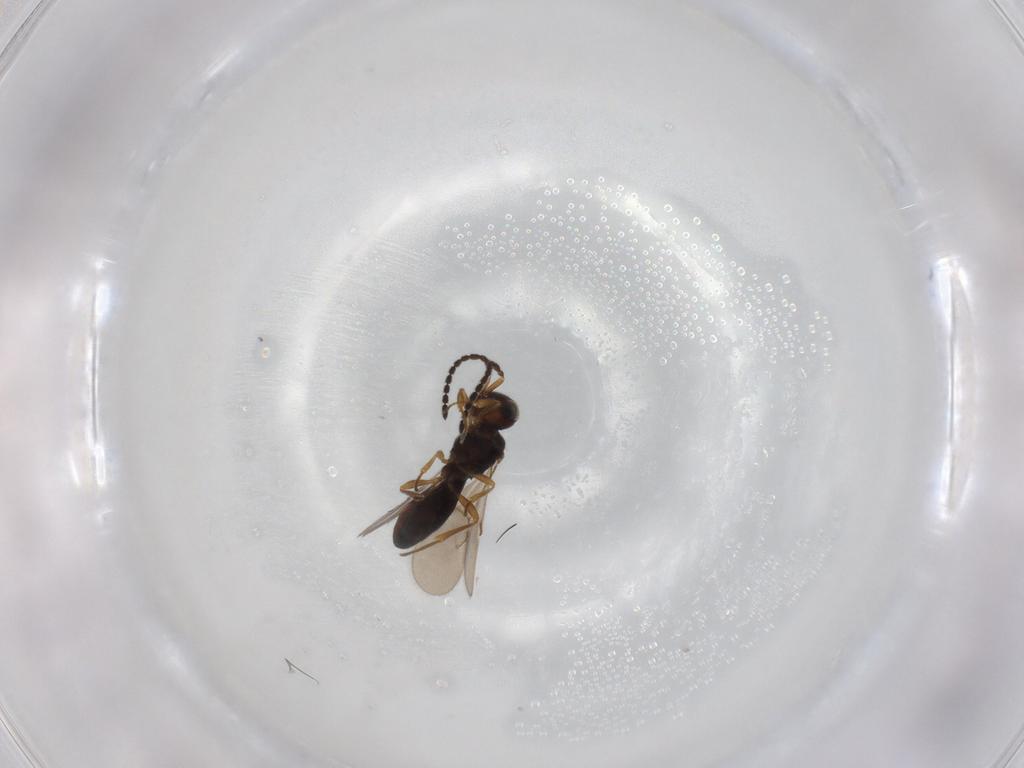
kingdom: Animalia
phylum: Arthropoda
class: Insecta
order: Hymenoptera
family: Scelionidae
